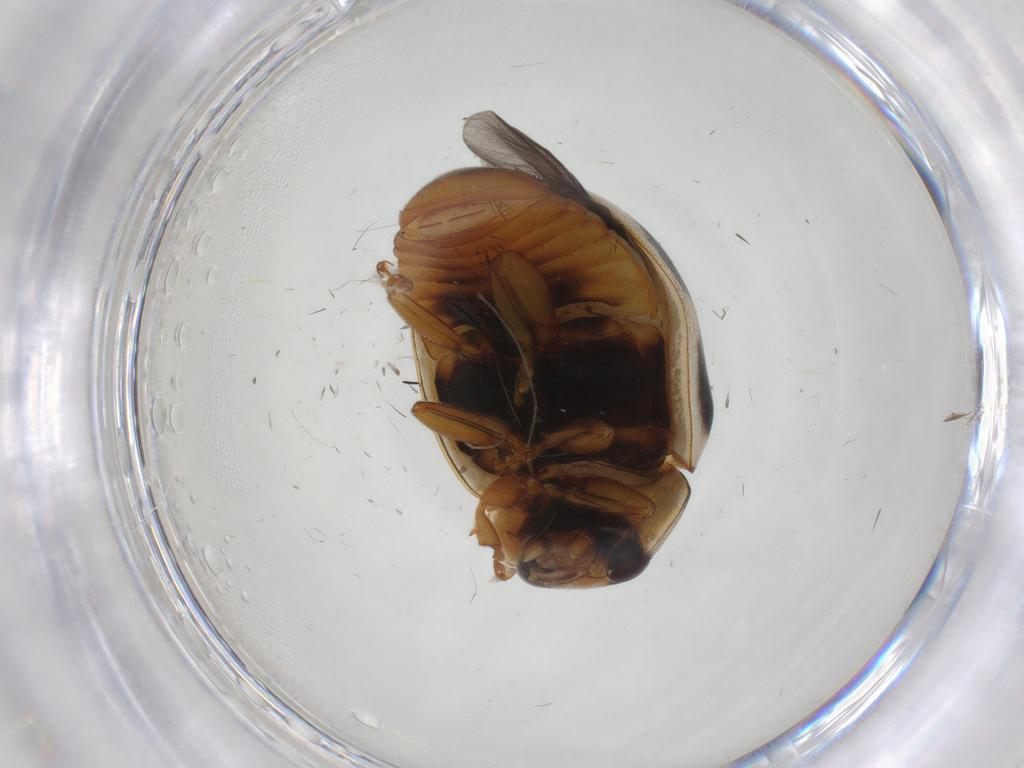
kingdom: Animalia
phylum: Arthropoda
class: Insecta
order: Coleoptera
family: Coccinellidae
